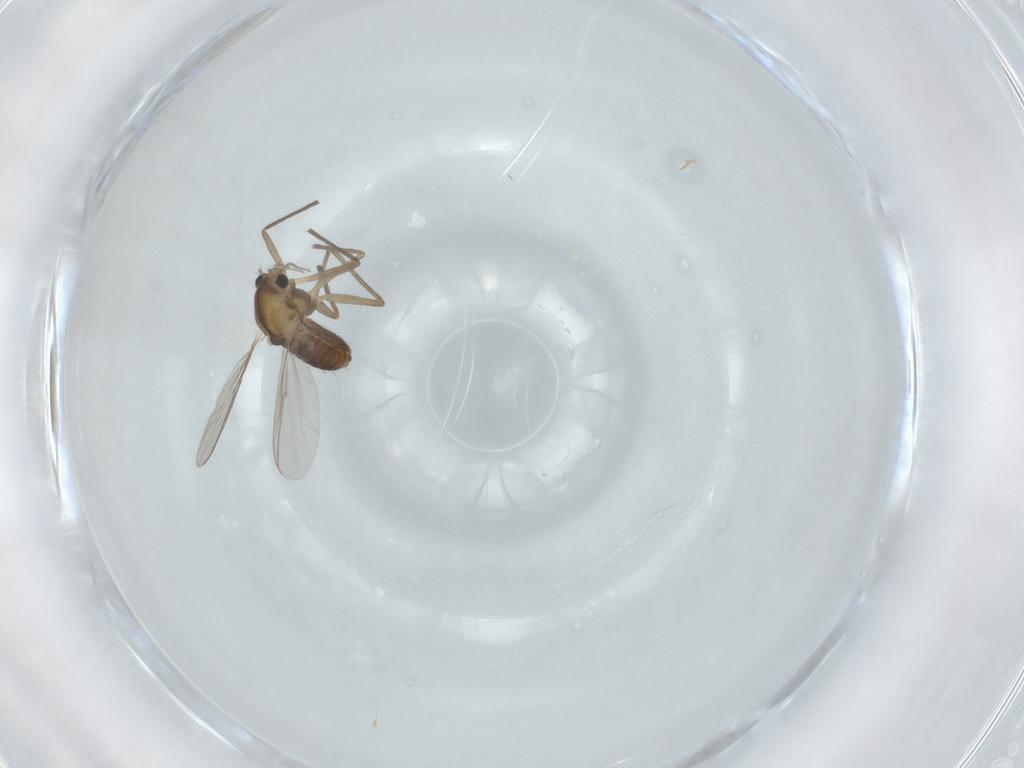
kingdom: Animalia
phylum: Arthropoda
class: Insecta
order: Diptera
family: Chironomidae
